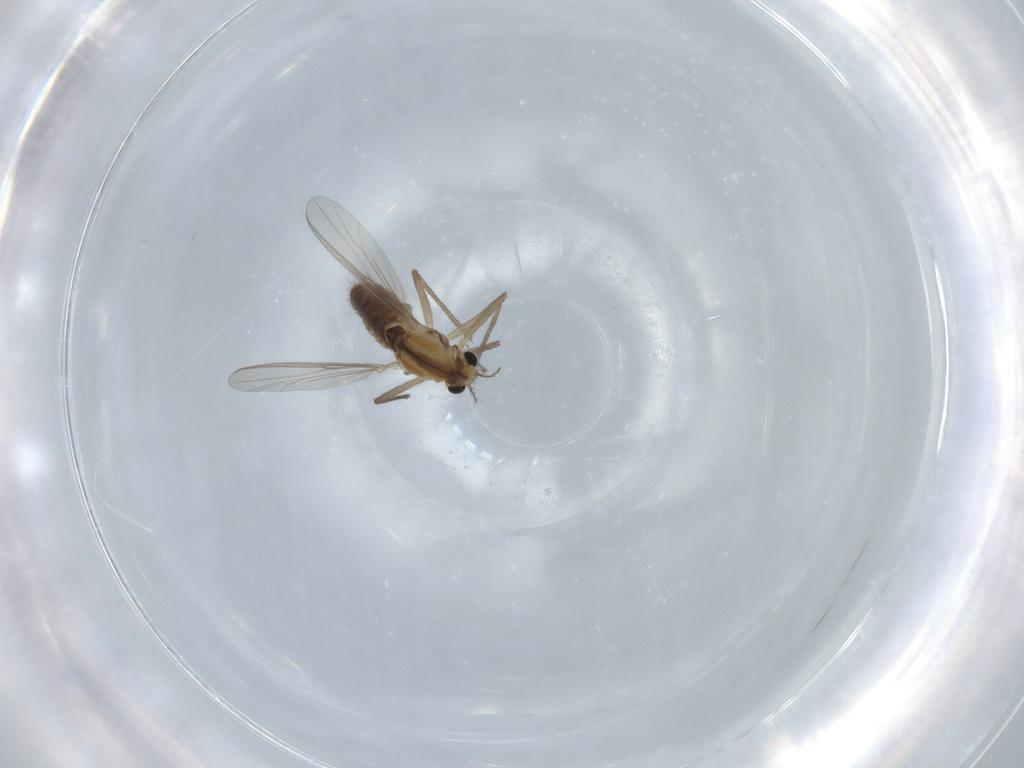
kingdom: Animalia
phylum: Arthropoda
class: Insecta
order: Diptera
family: Chironomidae
